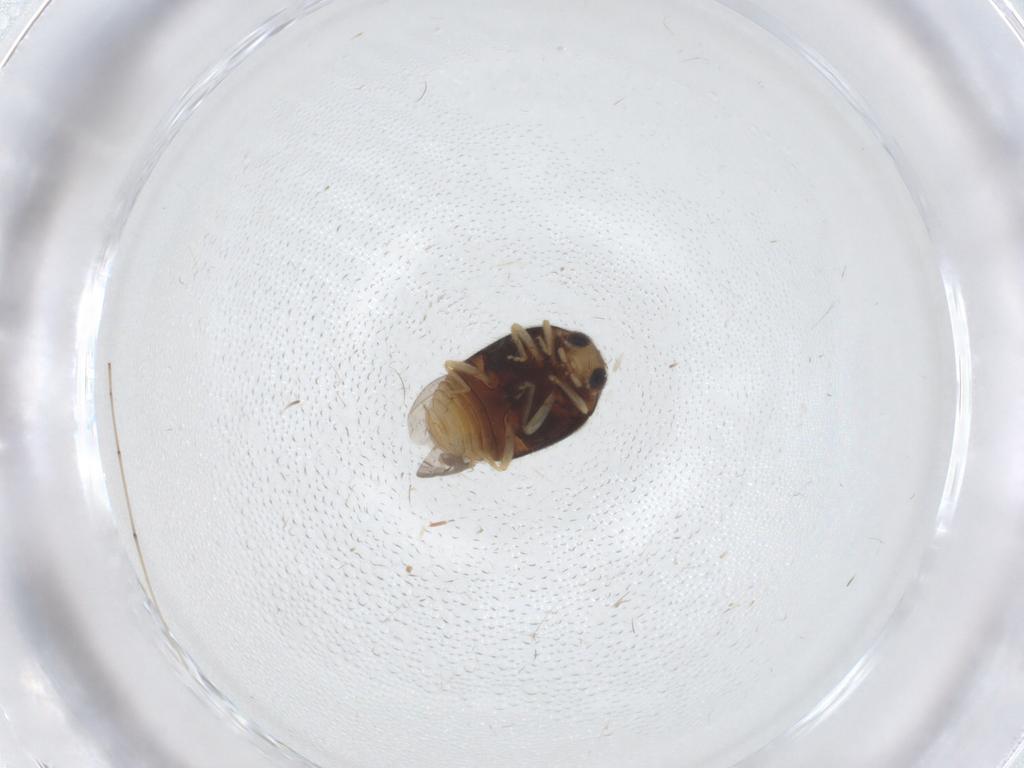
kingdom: Animalia
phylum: Arthropoda
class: Insecta
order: Coleoptera
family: Coccinellidae
